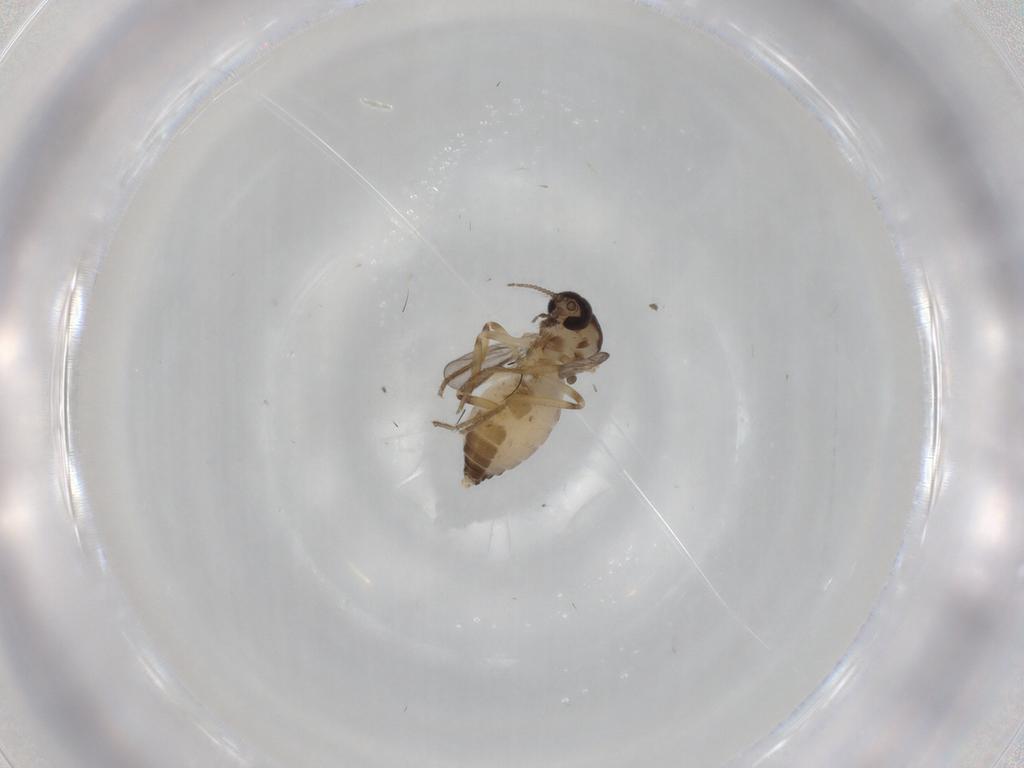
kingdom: Animalia
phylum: Arthropoda
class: Insecta
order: Diptera
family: Ceratopogonidae
